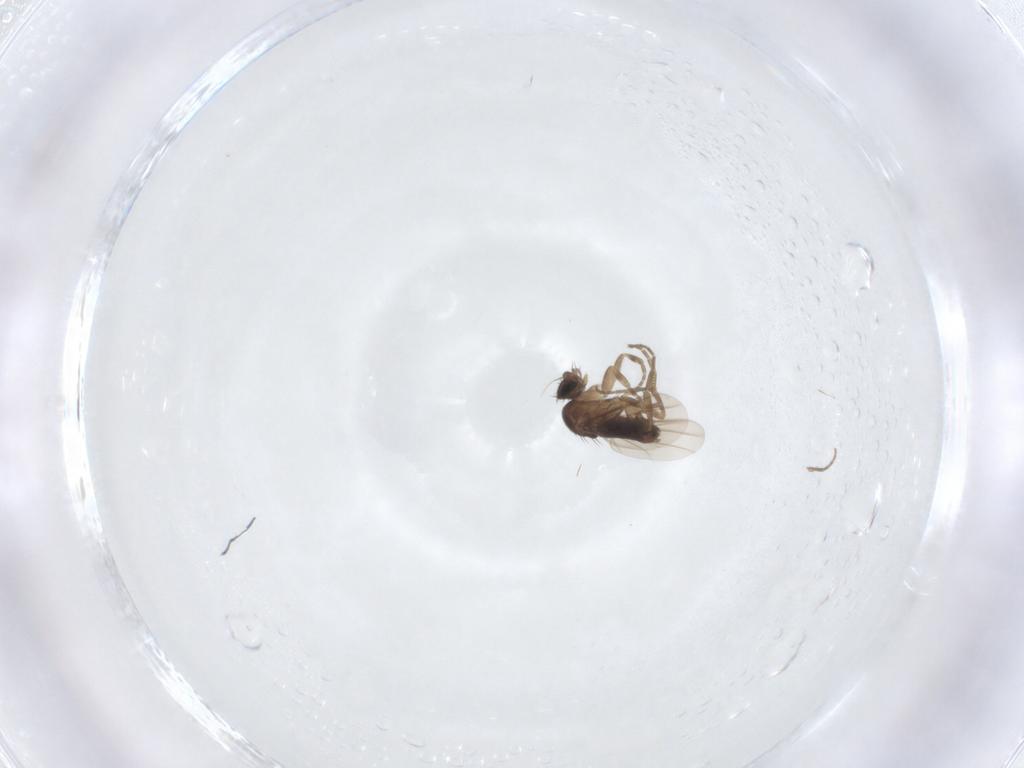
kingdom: Animalia
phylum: Arthropoda
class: Insecta
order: Diptera
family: Phoridae
